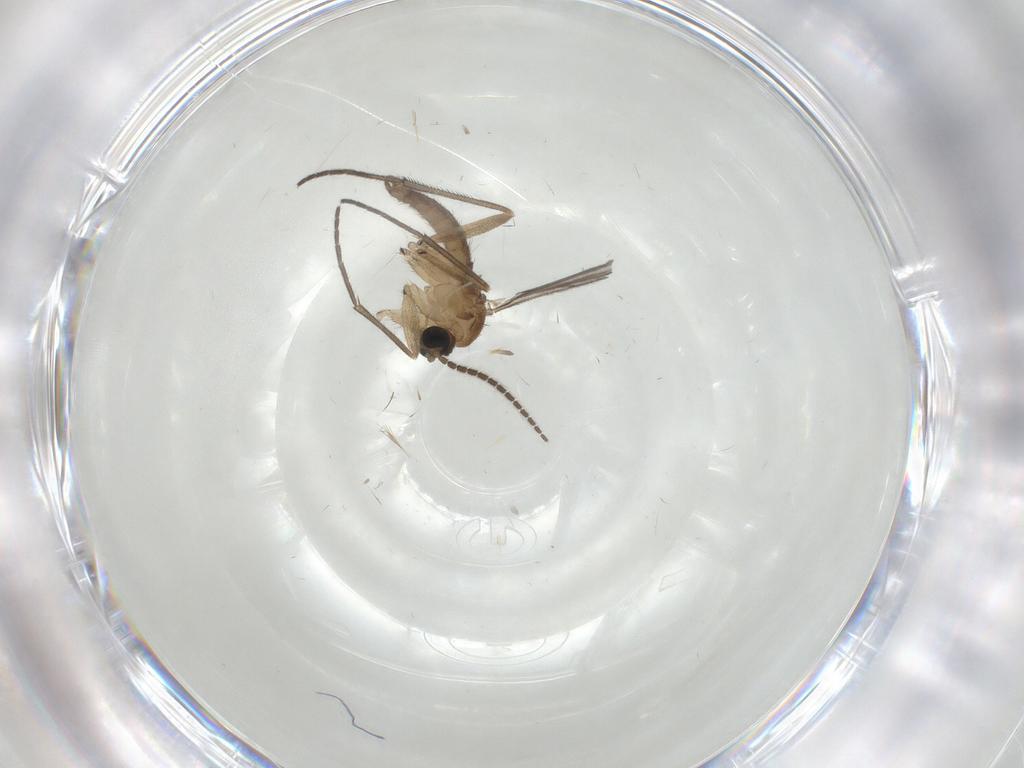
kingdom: Animalia
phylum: Arthropoda
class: Insecta
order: Diptera
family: Sciaridae
